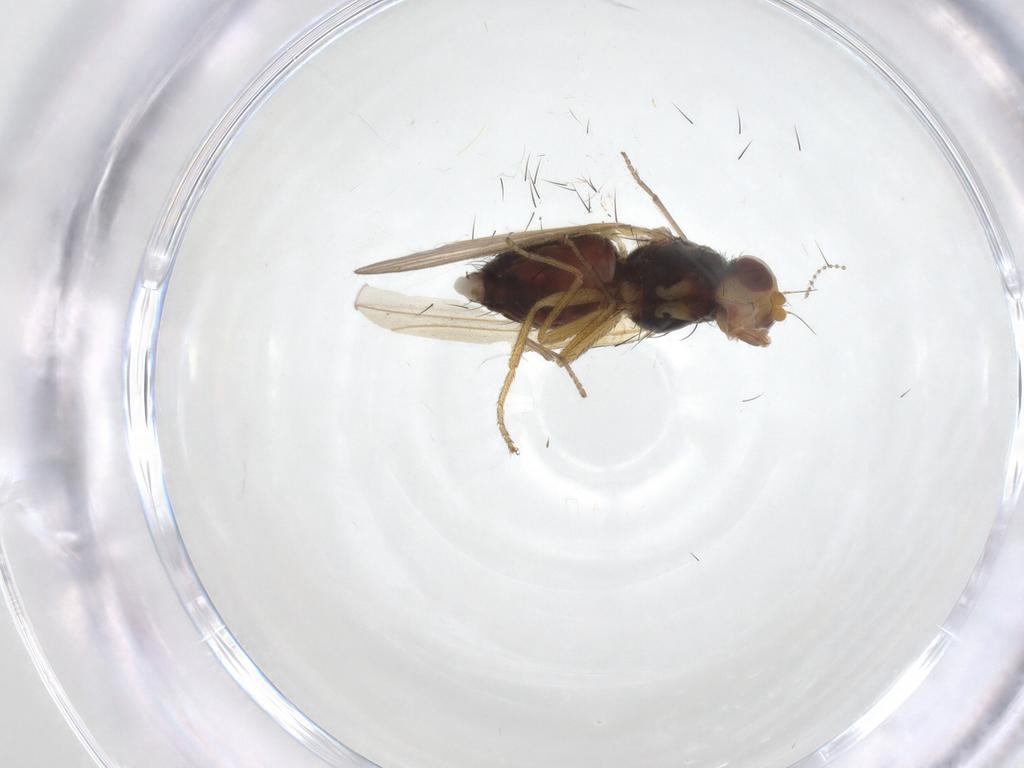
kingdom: Animalia
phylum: Arthropoda
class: Insecta
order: Diptera
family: Heleomyzidae
